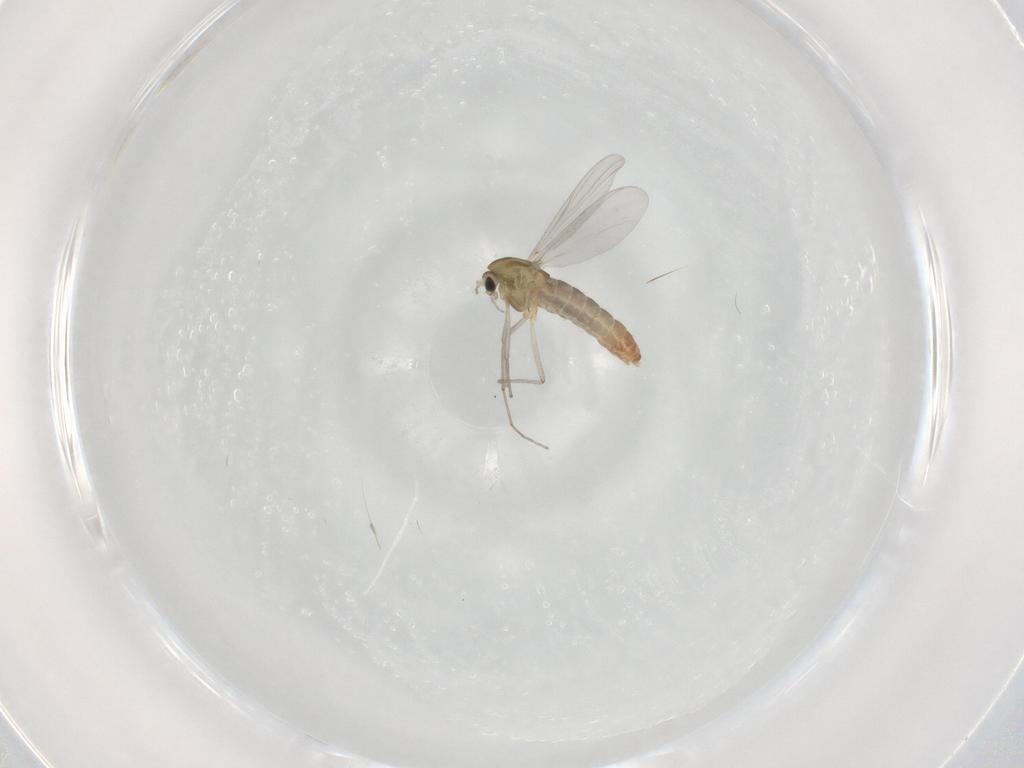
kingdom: Animalia
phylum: Arthropoda
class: Insecta
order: Diptera
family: Chironomidae
